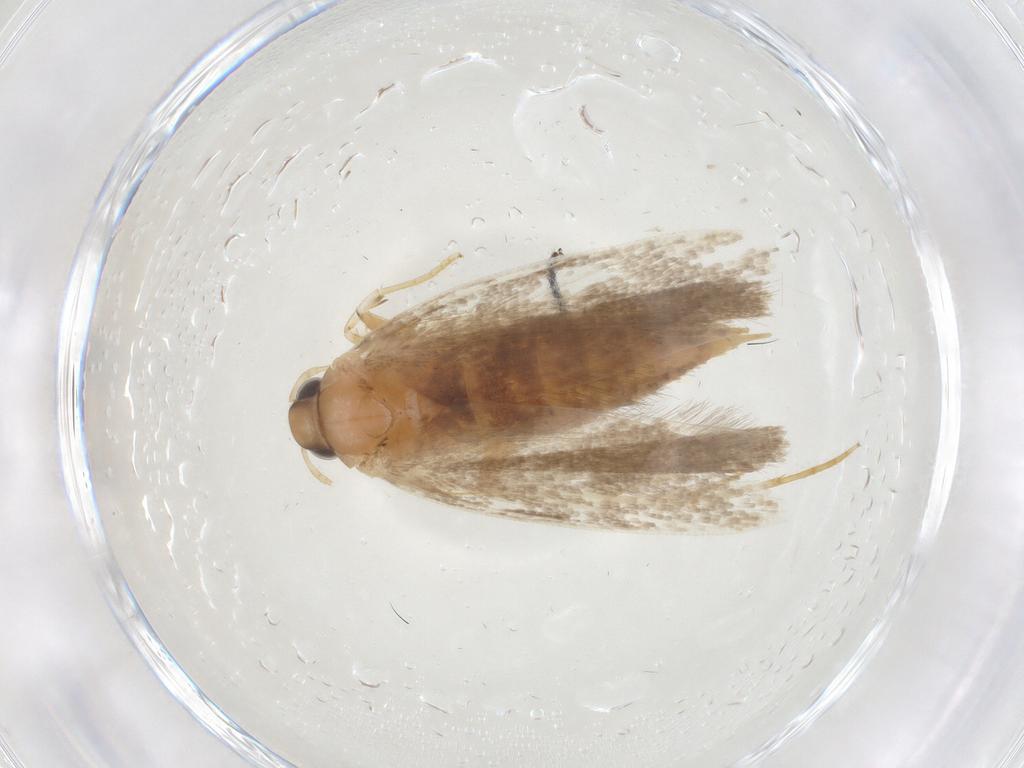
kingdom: Animalia
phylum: Arthropoda
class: Insecta
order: Lepidoptera
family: Gelechiidae
